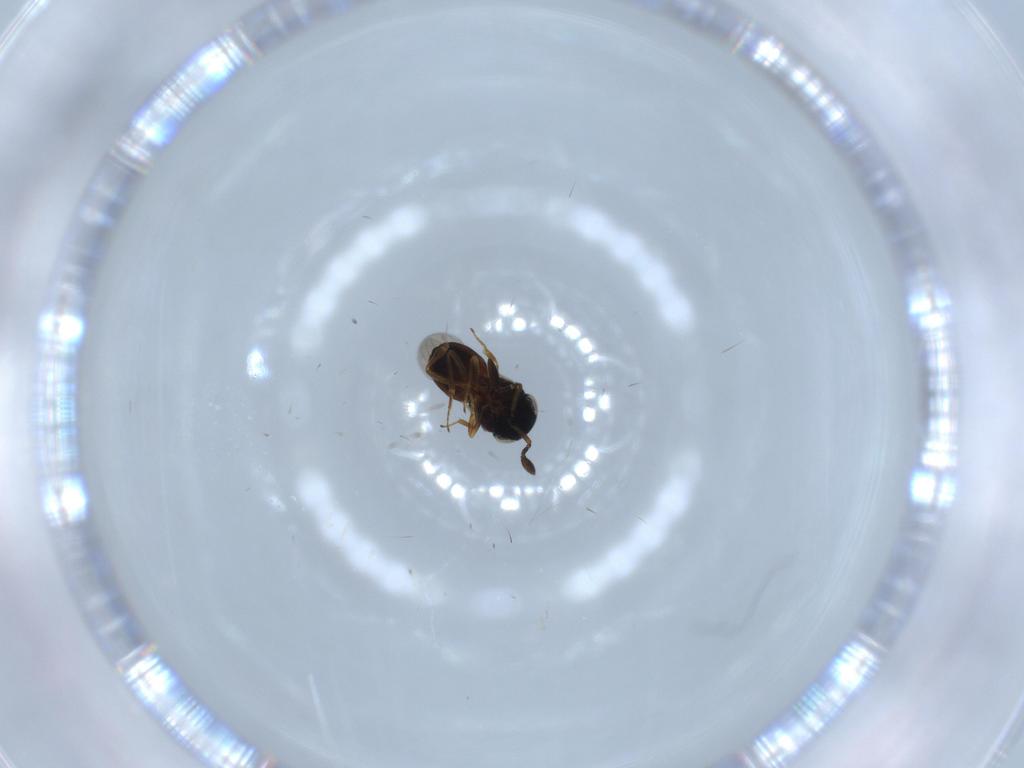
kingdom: Animalia
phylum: Arthropoda
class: Insecta
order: Hymenoptera
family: Scelionidae
